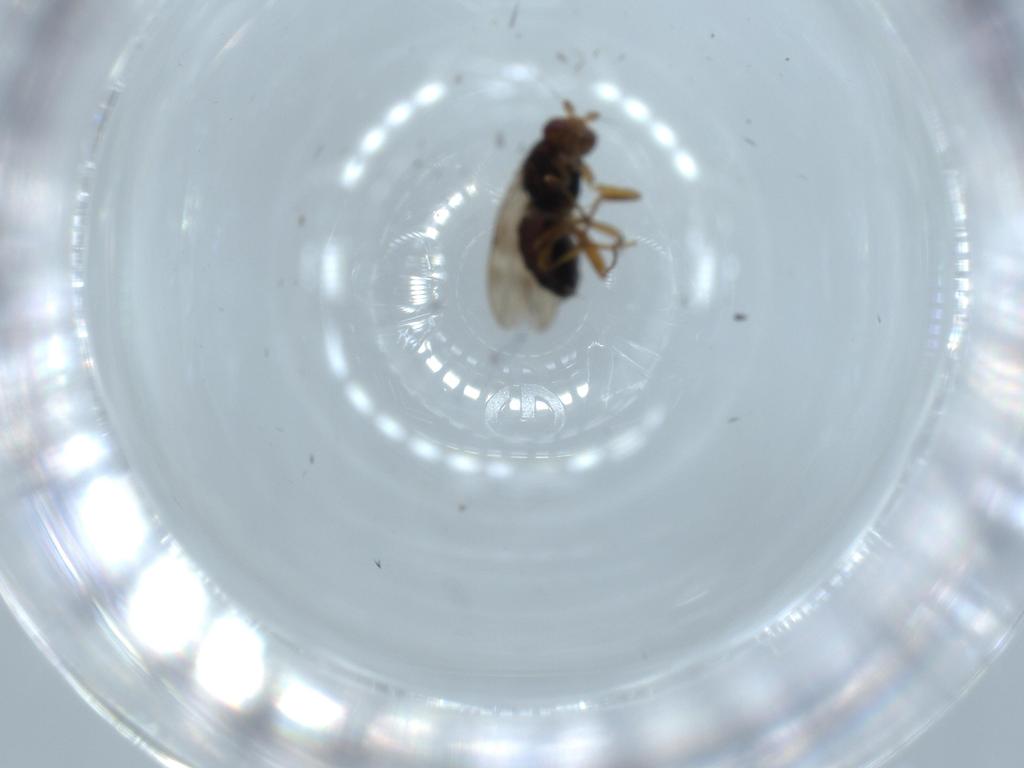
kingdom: Animalia
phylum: Arthropoda
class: Insecta
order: Diptera
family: Sphaeroceridae
